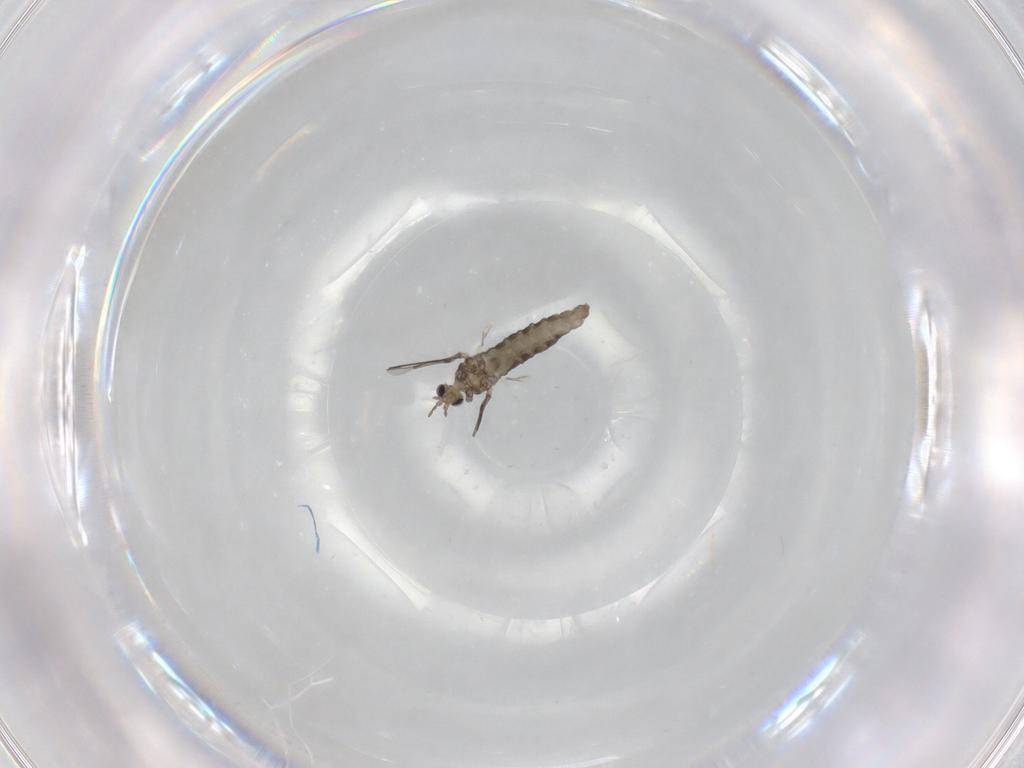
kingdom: Animalia
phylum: Arthropoda
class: Insecta
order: Diptera
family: Cecidomyiidae
